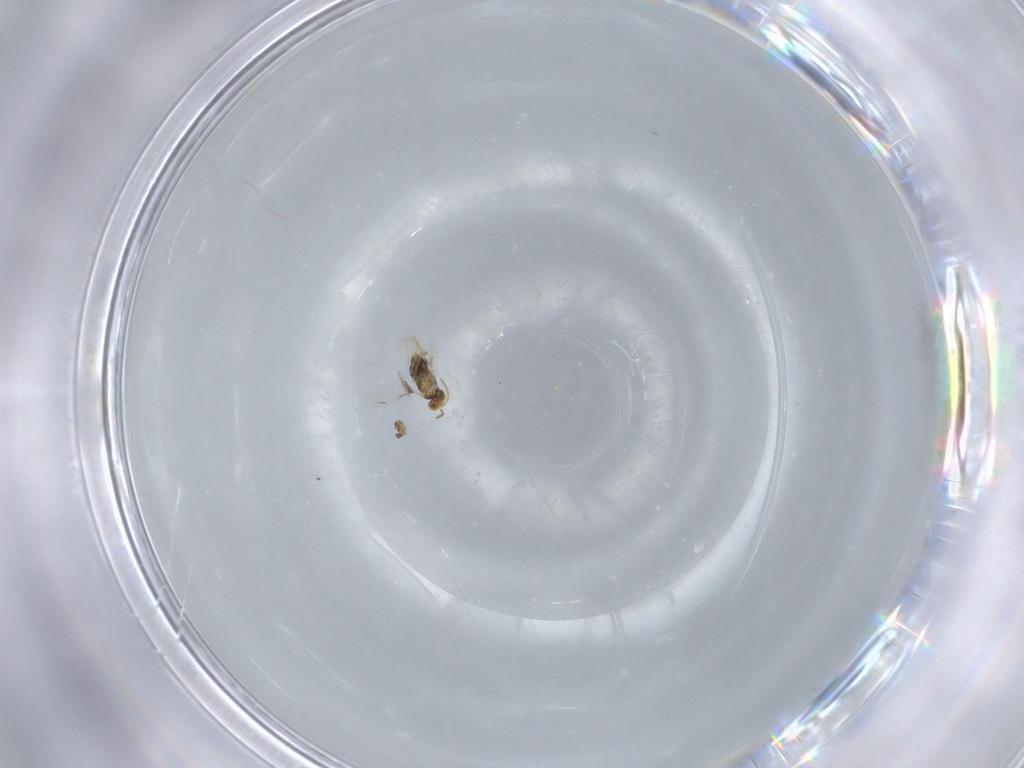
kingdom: Animalia
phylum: Arthropoda
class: Insecta
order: Hymenoptera
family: Aphelinidae
